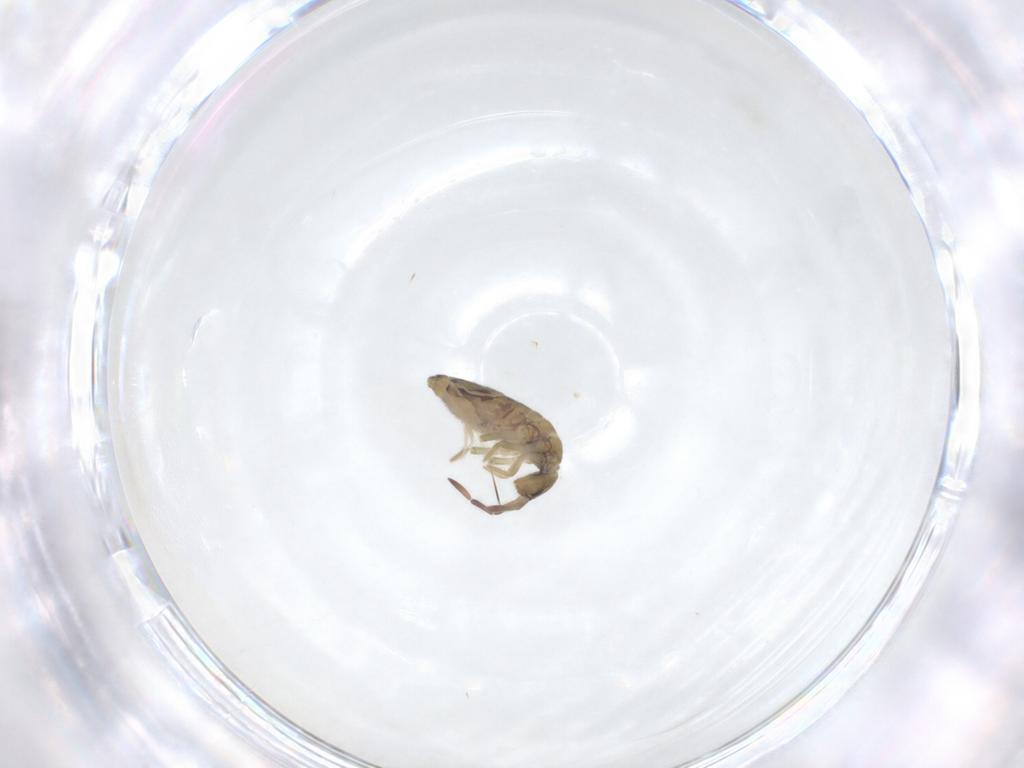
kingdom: Animalia
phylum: Arthropoda
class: Collembola
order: Entomobryomorpha
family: Entomobryidae
